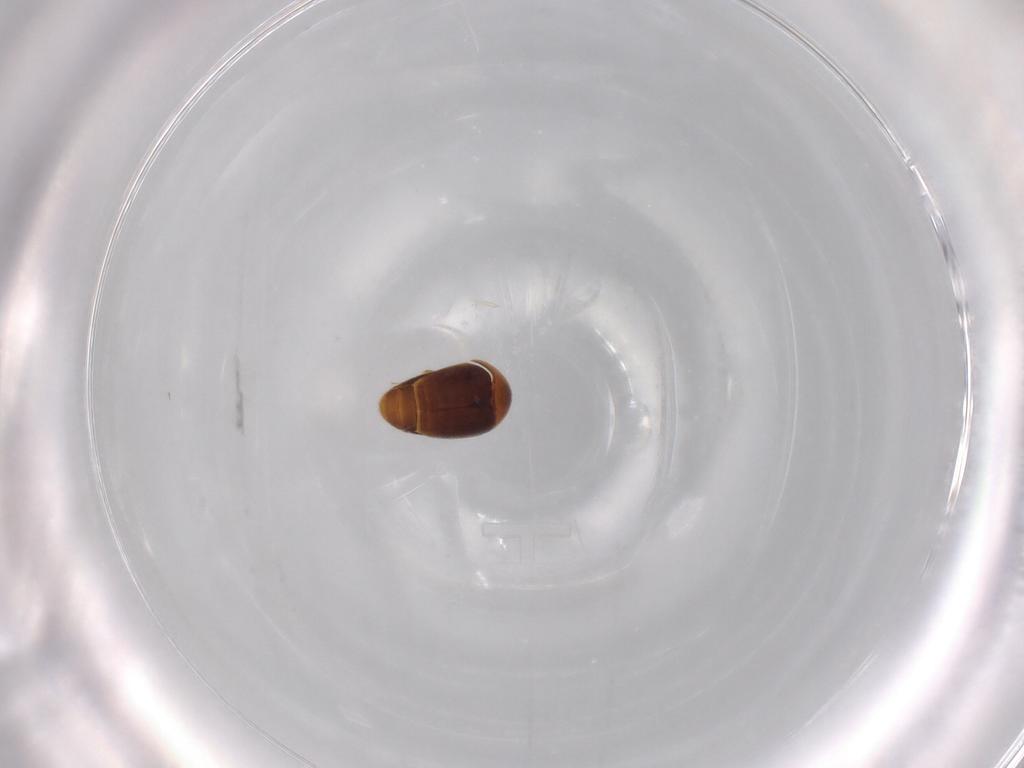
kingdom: Animalia
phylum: Arthropoda
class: Insecta
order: Coleoptera
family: Corylophidae
